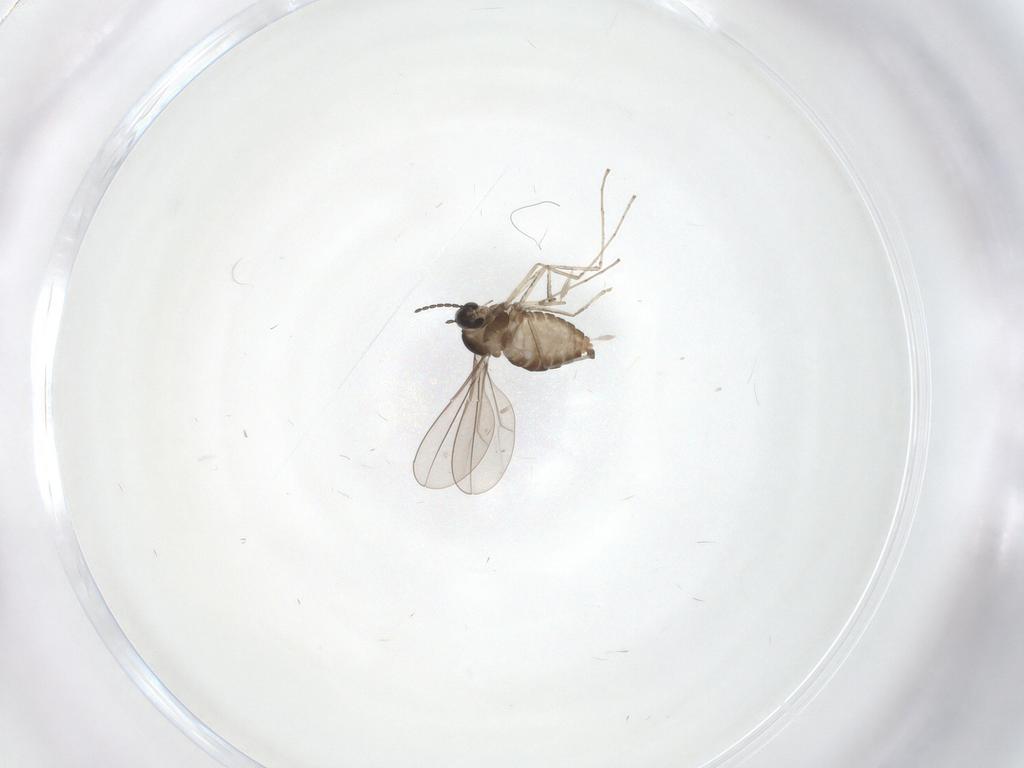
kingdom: Animalia
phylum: Arthropoda
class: Insecta
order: Diptera
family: Cecidomyiidae
